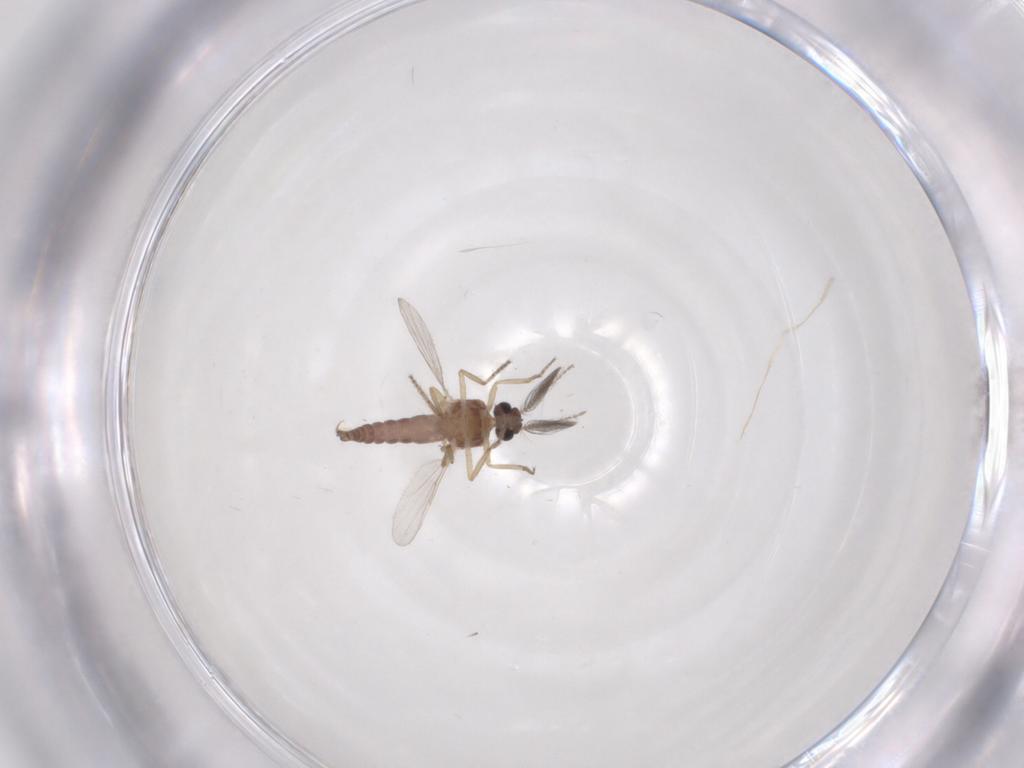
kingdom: Animalia
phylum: Arthropoda
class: Insecta
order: Diptera
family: Ceratopogonidae
